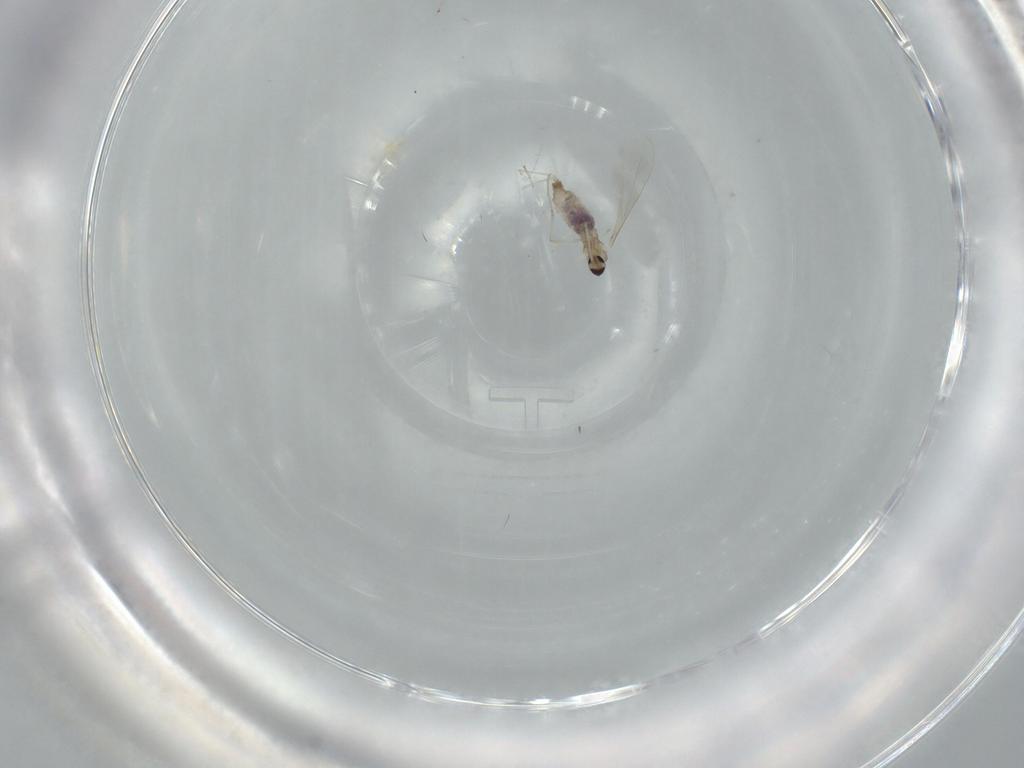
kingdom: Animalia
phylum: Arthropoda
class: Insecta
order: Diptera
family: Cecidomyiidae
